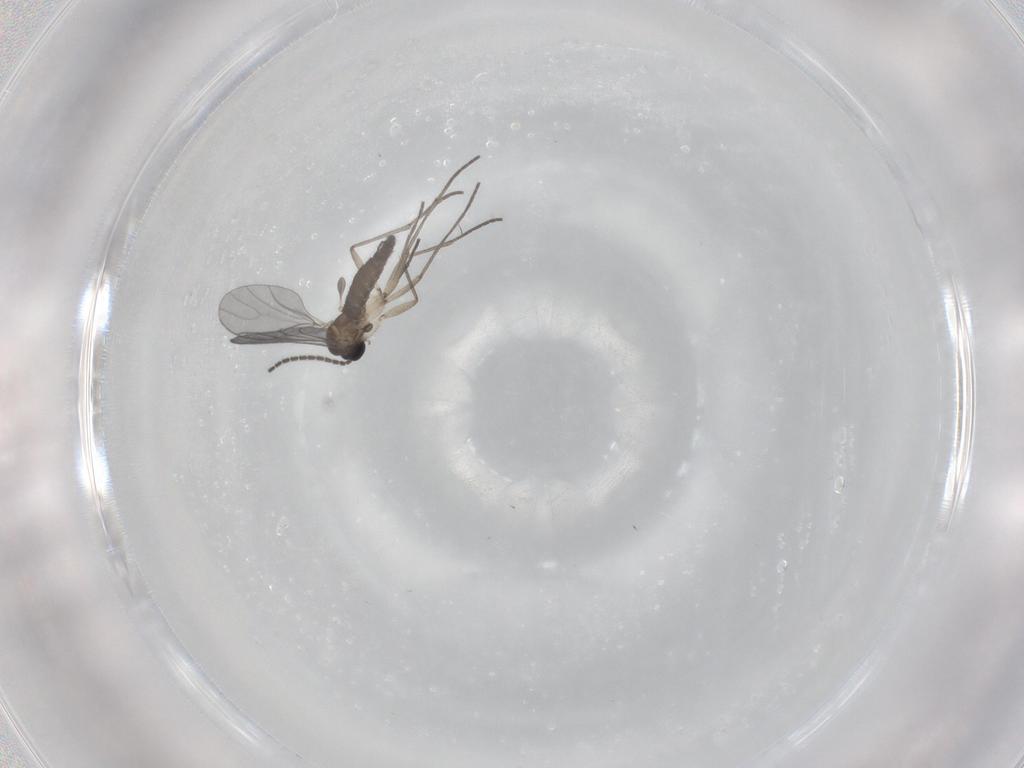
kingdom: Animalia
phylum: Arthropoda
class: Insecta
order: Diptera
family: Sciaridae
